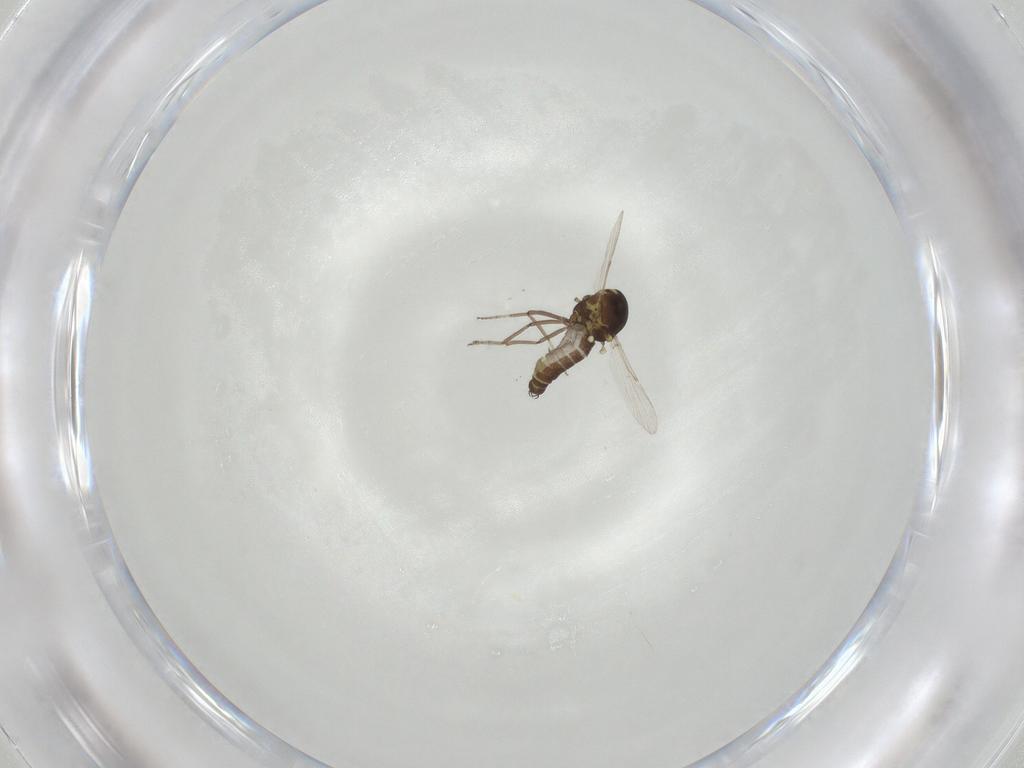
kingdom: Animalia
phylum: Arthropoda
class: Insecta
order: Diptera
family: Ceratopogonidae
